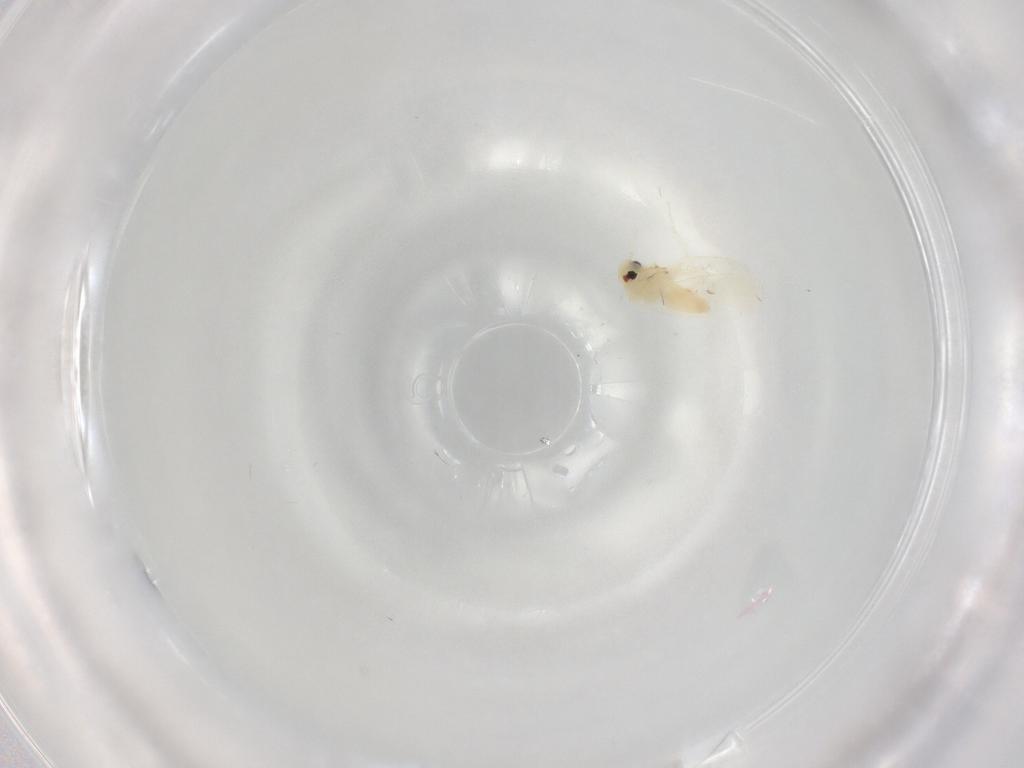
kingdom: Animalia
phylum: Arthropoda
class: Insecta
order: Hemiptera
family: Aleyrodidae
